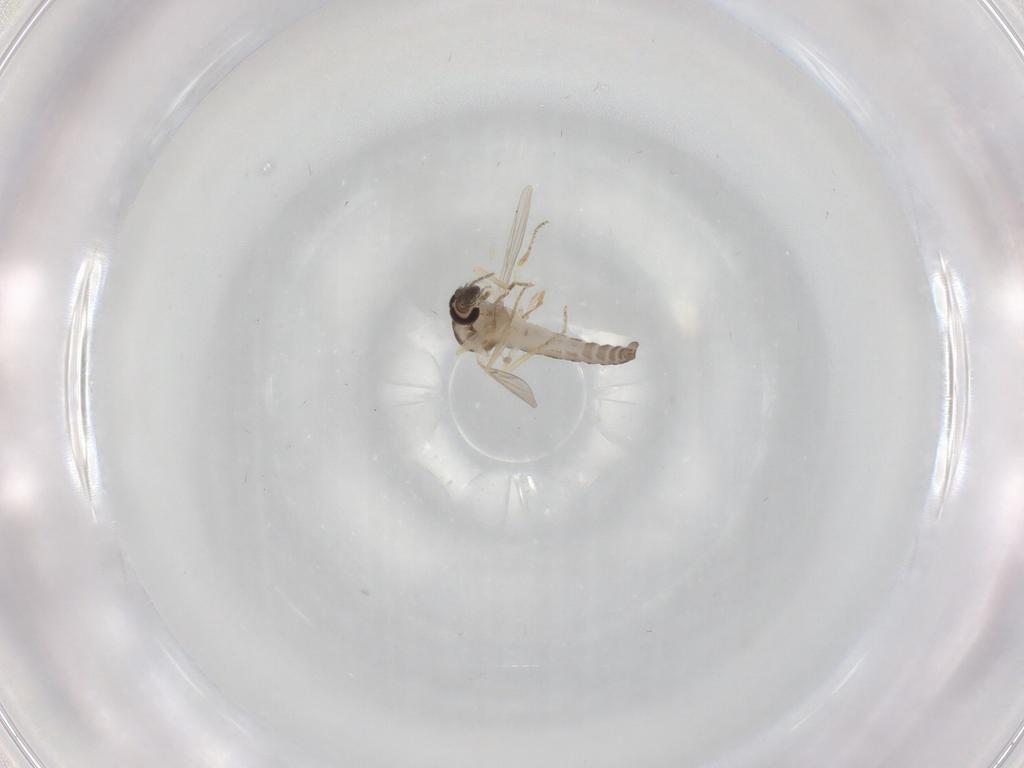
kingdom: Animalia
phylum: Arthropoda
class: Insecta
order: Diptera
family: Ceratopogonidae
